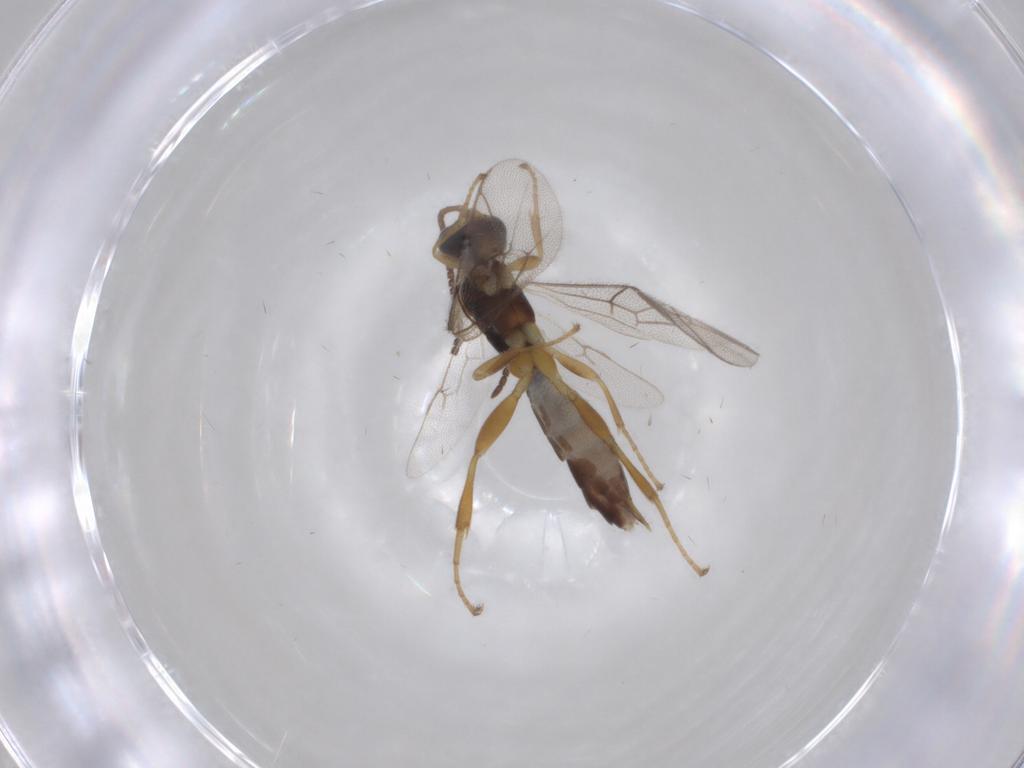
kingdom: Animalia
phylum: Arthropoda
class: Insecta
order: Hymenoptera
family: Ichneumonidae
